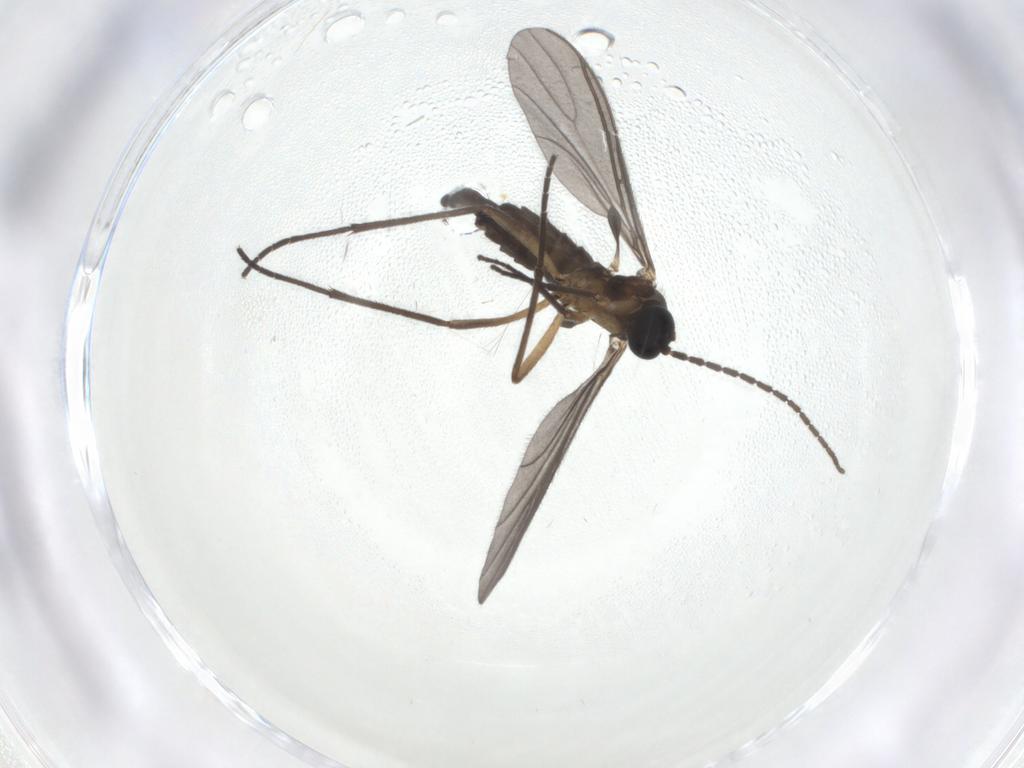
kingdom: Animalia
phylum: Arthropoda
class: Insecta
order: Diptera
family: Sciaridae
